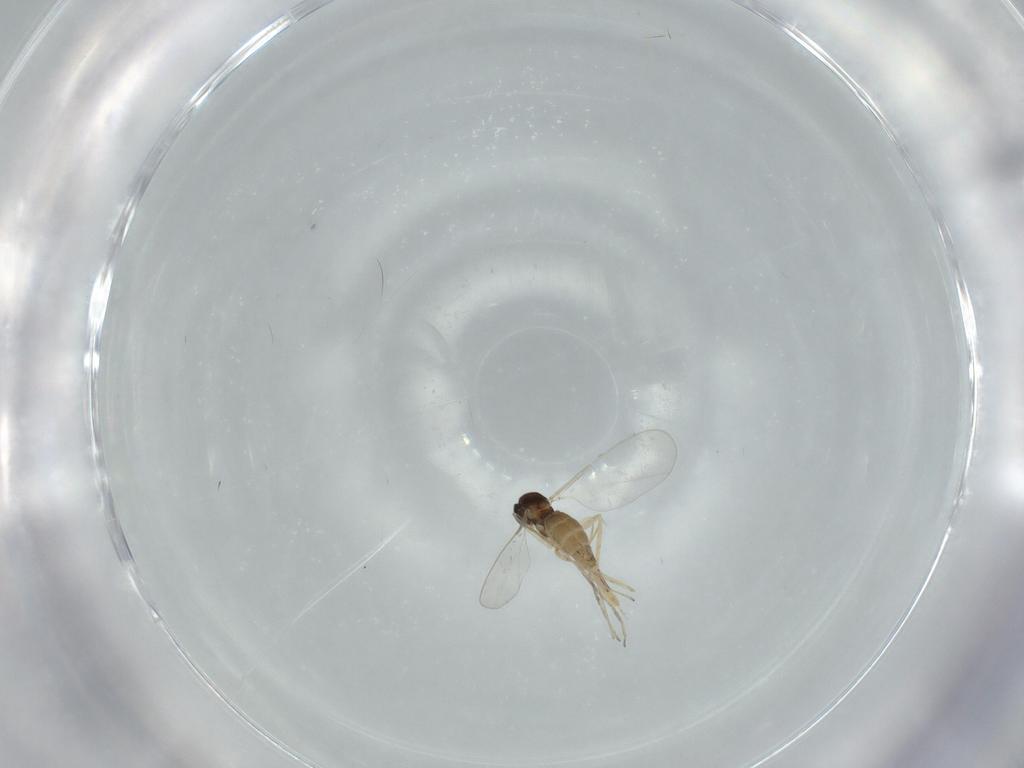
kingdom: Animalia
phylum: Arthropoda
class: Insecta
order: Diptera
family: Cecidomyiidae
